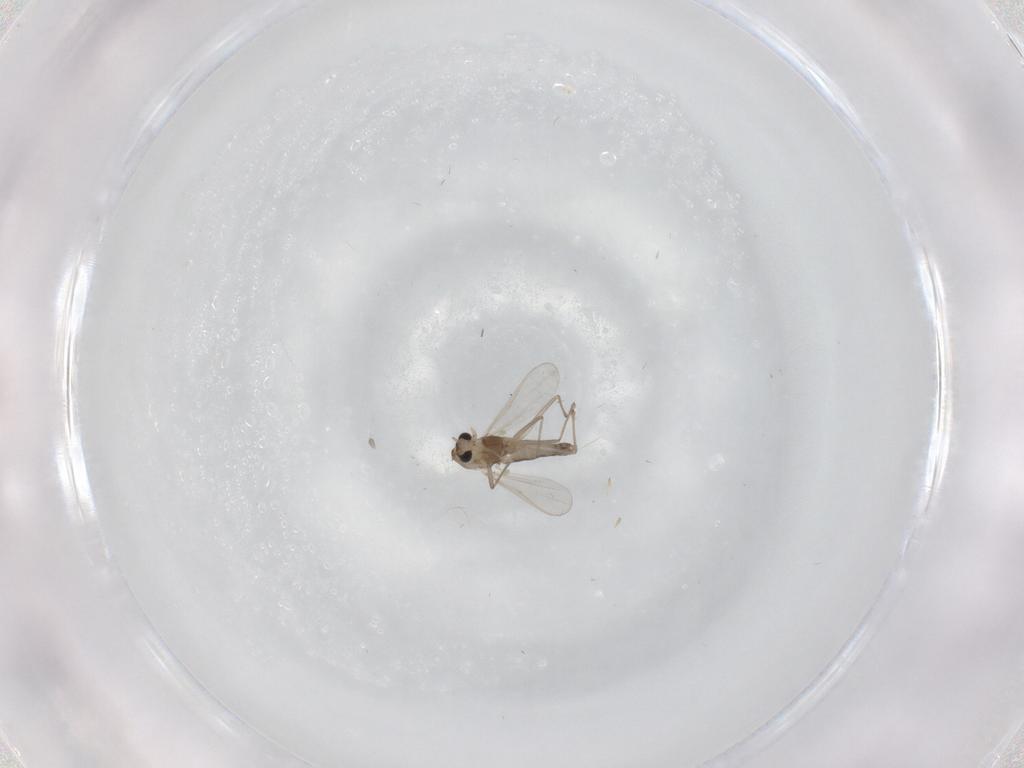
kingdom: Animalia
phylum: Arthropoda
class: Insecta
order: Diptera
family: Chironomidae
